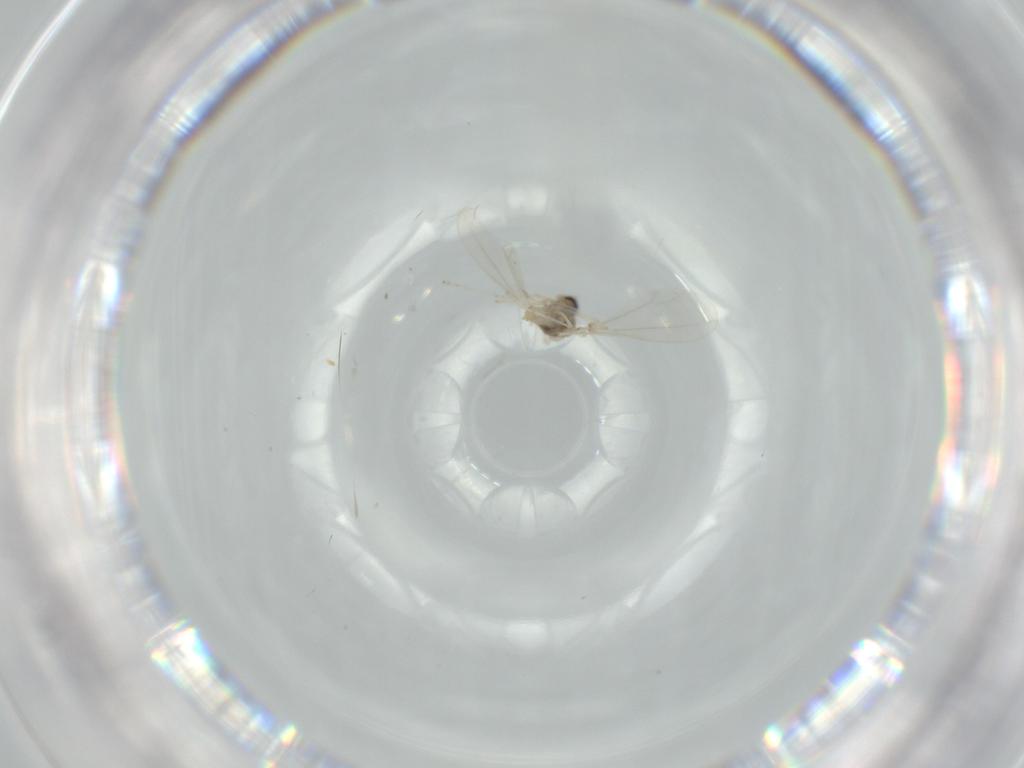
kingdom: Animalia
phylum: Arthropoda
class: Insecta
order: Diptera
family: Cecidomyiidae
